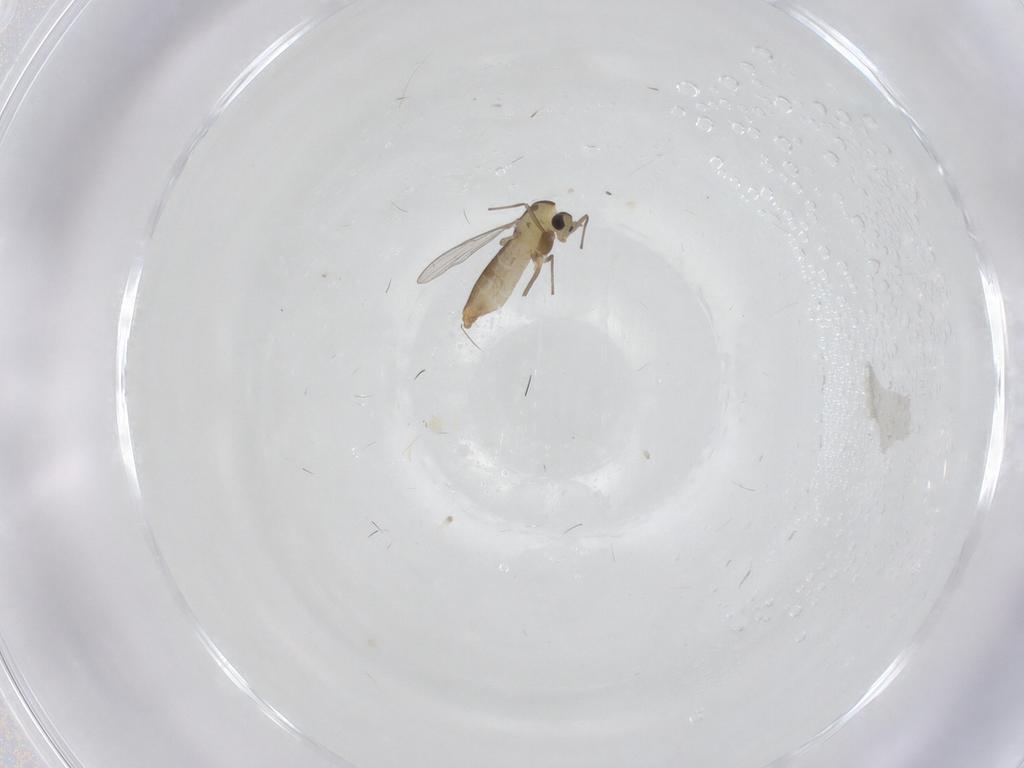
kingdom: Animalia
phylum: Arthropoda
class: Insecta
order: Diptera
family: Chironomidae
